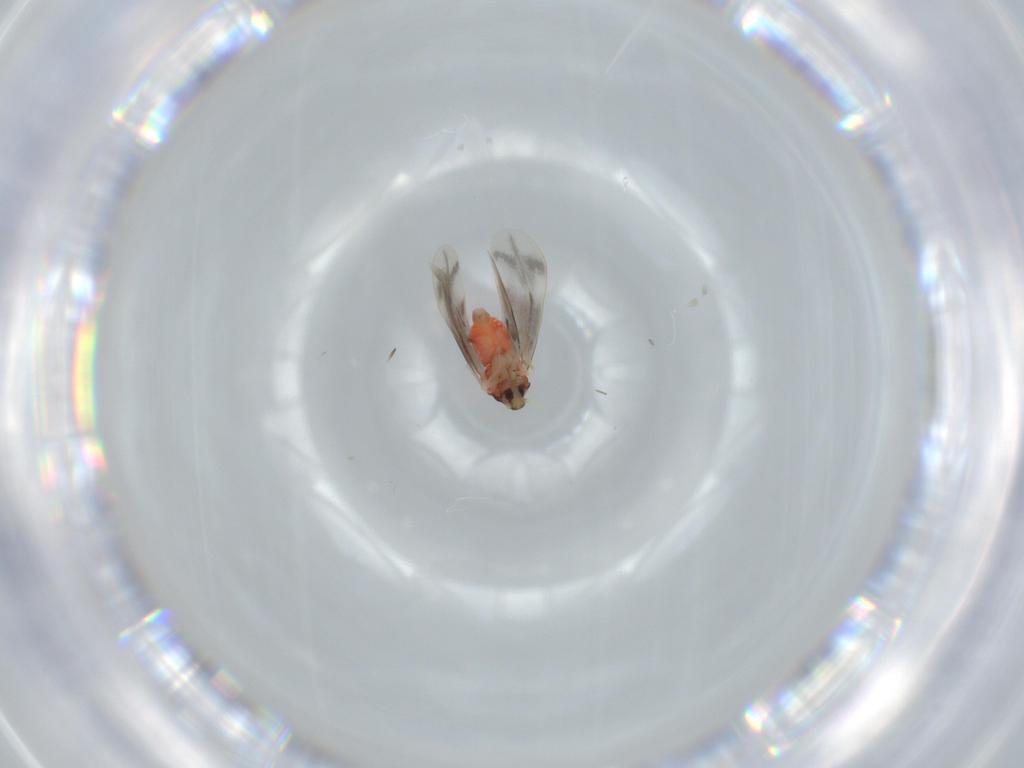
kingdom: Animalia
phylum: Arthropoda
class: Insecta
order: Hemiptera
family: Aleyrodidae
